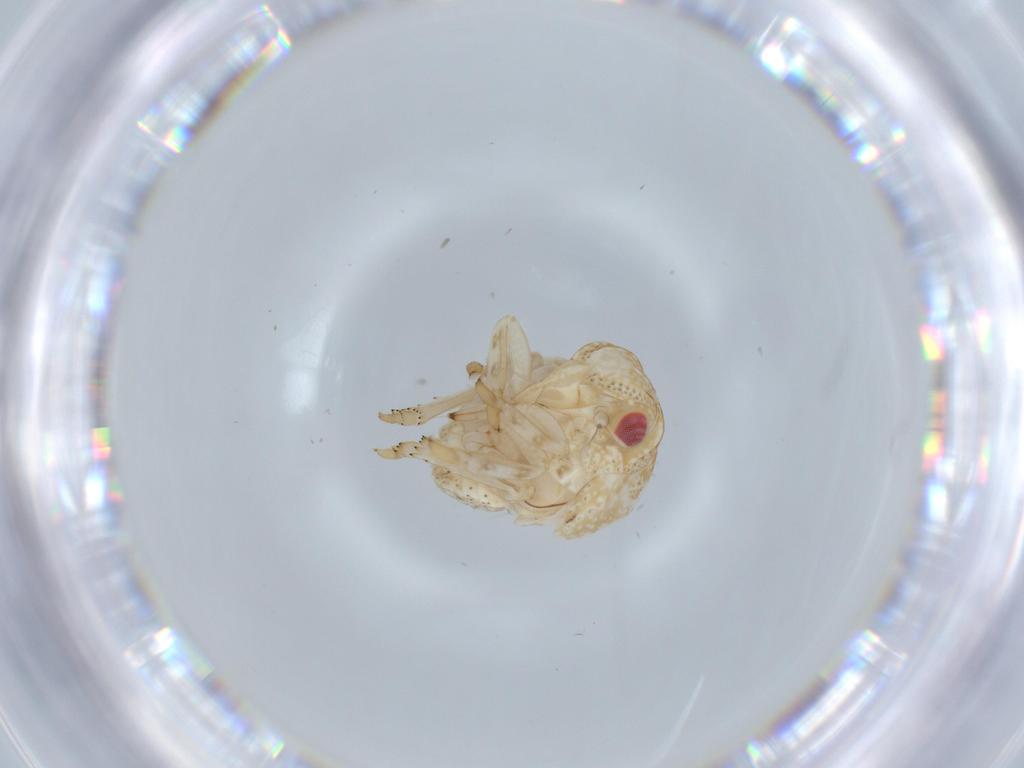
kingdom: Animalia
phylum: Arthropoda
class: Insecta
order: Hemiptera
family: Acanaloniidae
